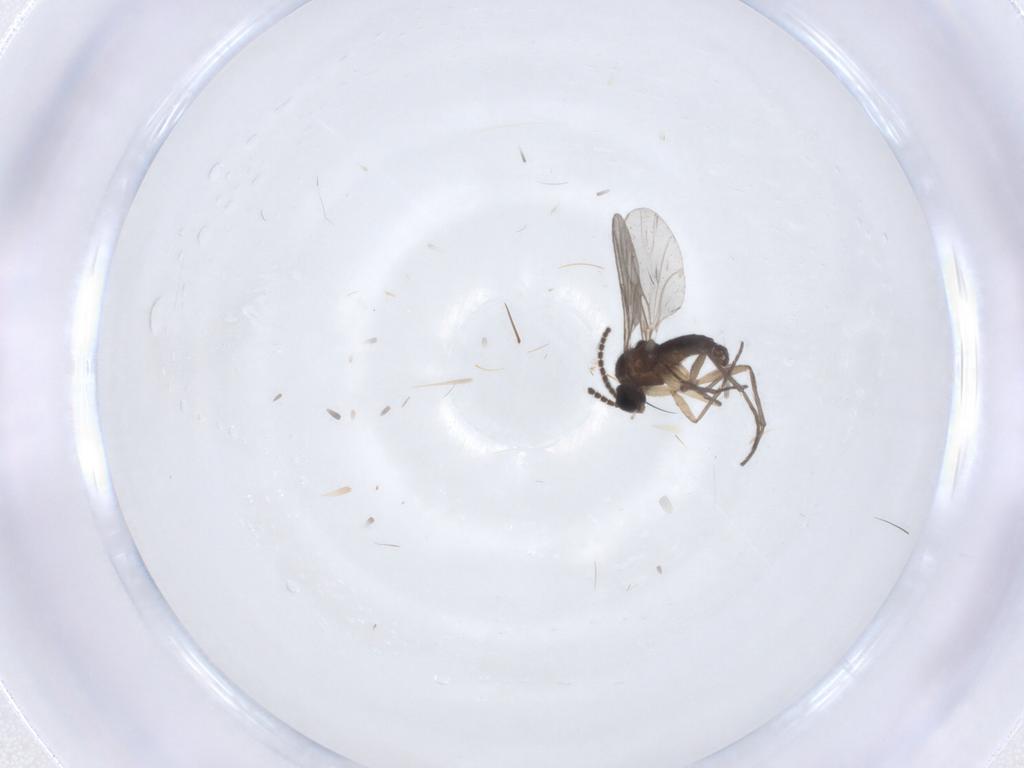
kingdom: Animalia
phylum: Arthropoda
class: Insecta
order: Diptera
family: Sciaridae
